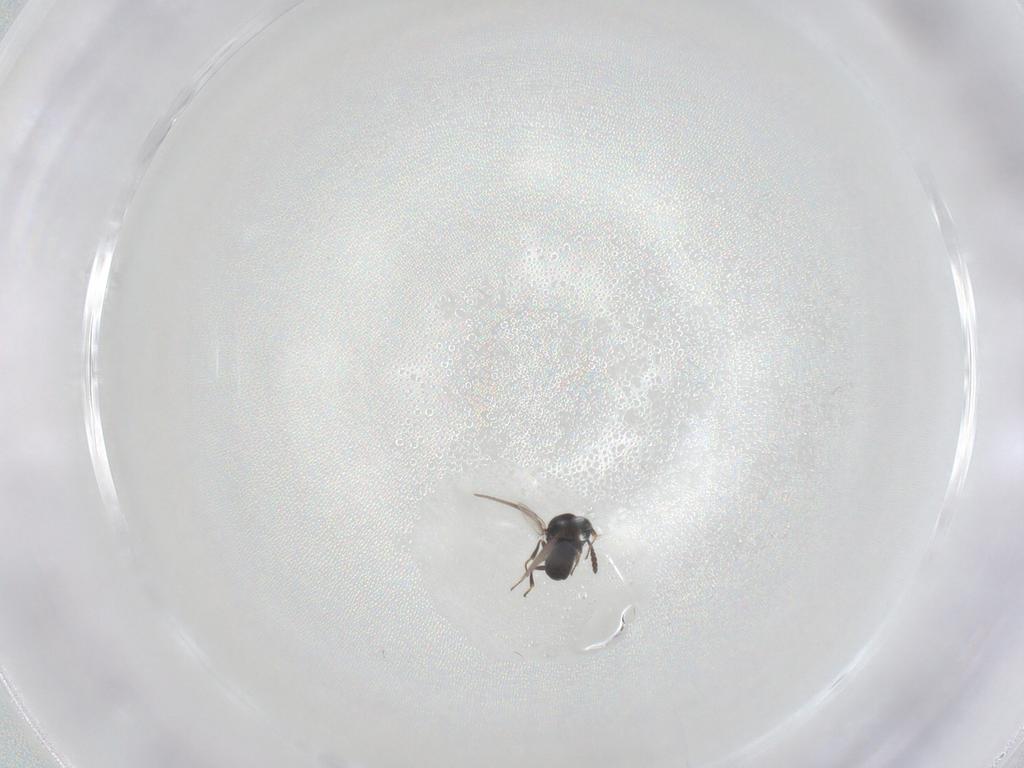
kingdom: Animalia
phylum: Arthropoda
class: Insecta
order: Hymenoptera
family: Scelionidae
